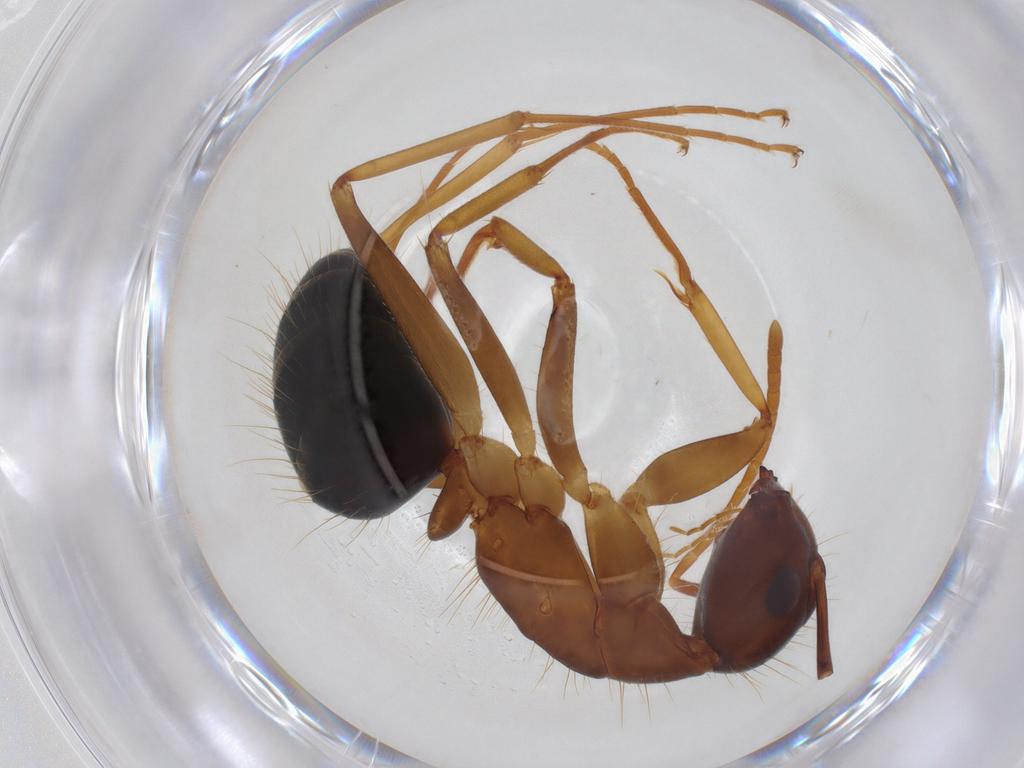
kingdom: Animalia
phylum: Arthropoda
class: Insecta
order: Hymenoptera
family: Formicidae
